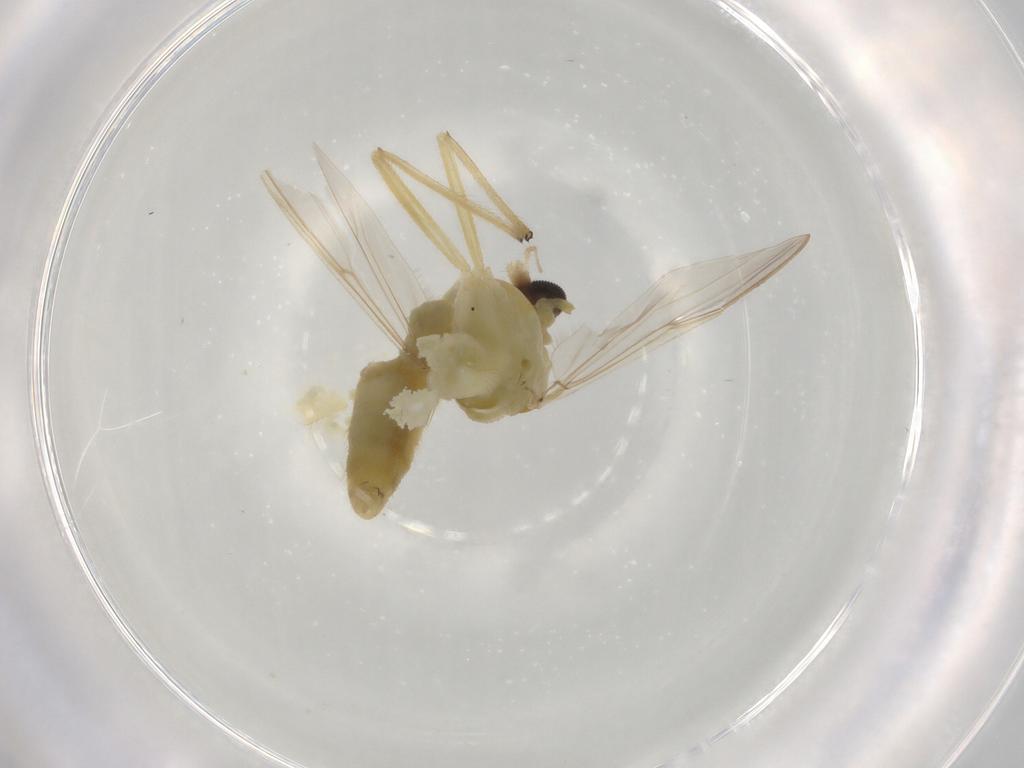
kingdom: Animalia
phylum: Arthropoda
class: Insecta
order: Diptera
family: Chironomidae
